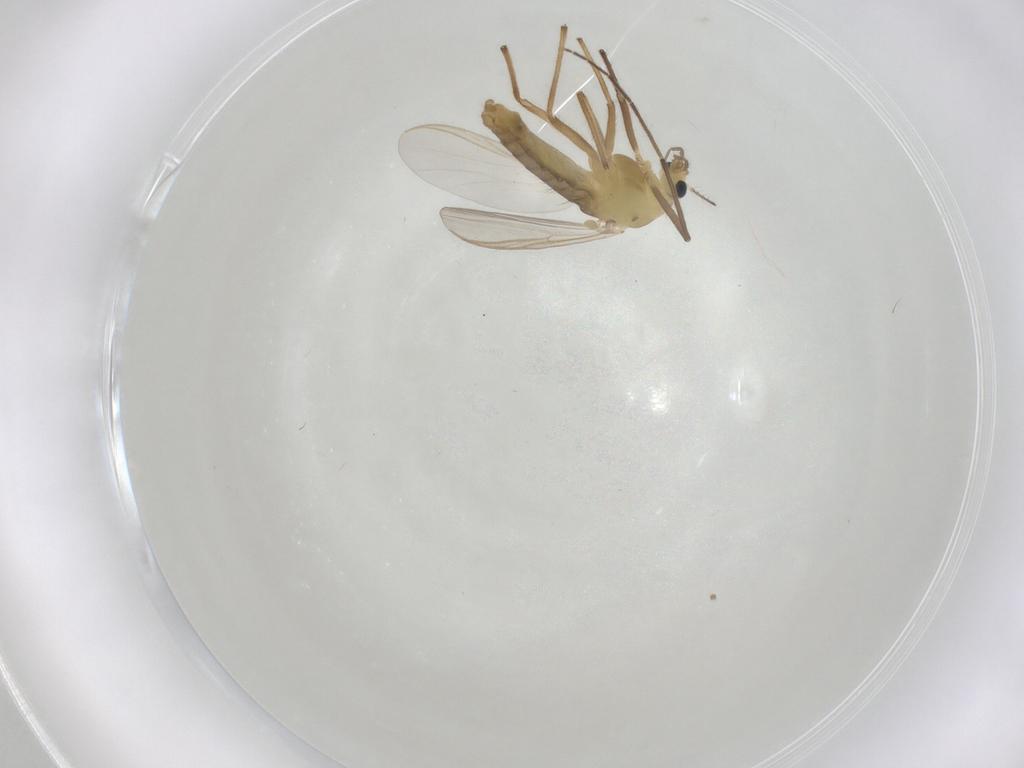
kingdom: Animalia
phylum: Arthropoda
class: Insecta
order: Diptera
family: Chironomidae
